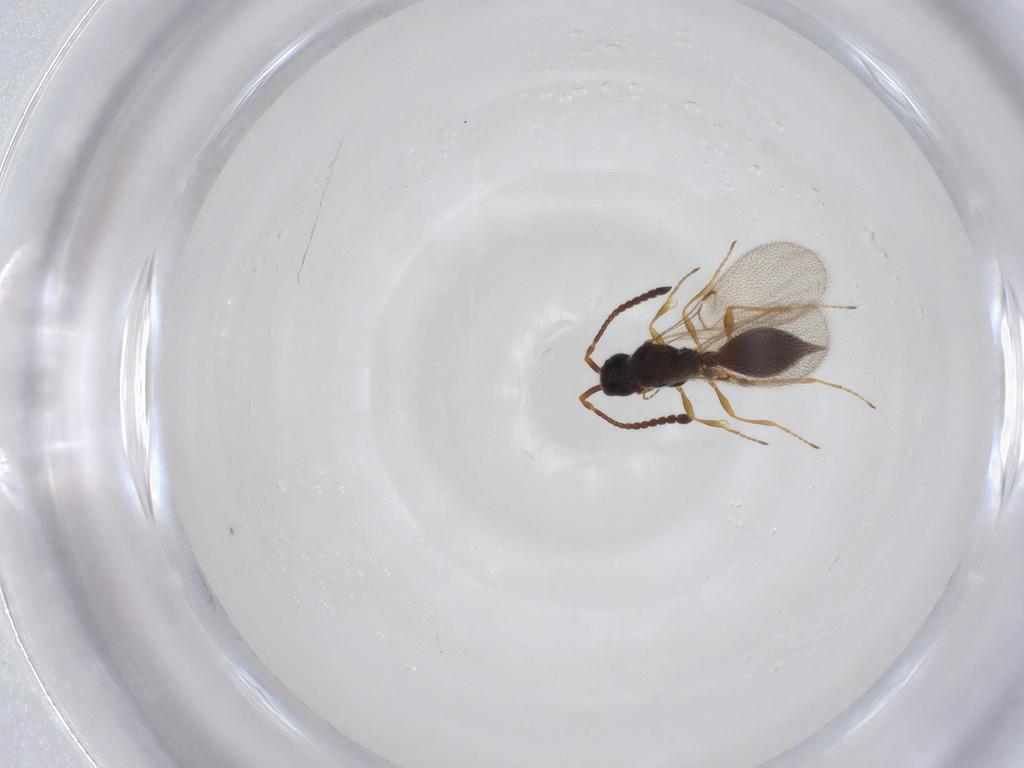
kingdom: Animalia
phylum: Arthropoda
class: Insecta
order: Hymenoptera
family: Diapriidae
